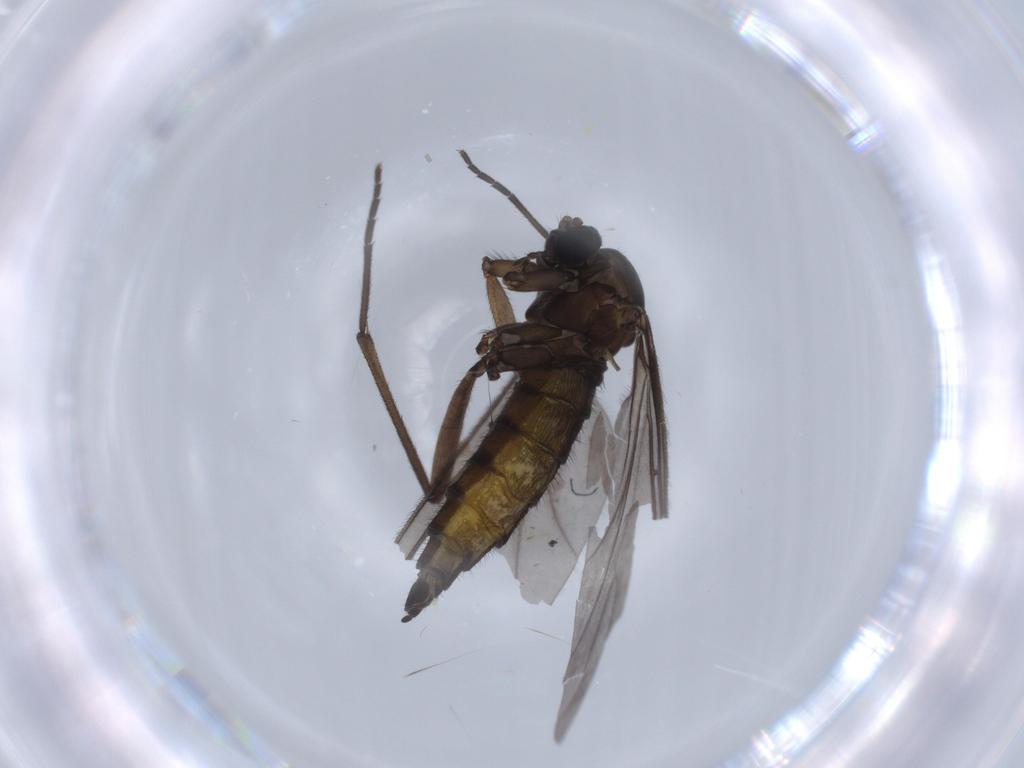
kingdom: Animalia
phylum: Arthropoda
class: Insecta
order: Diptera
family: Sciaridae
